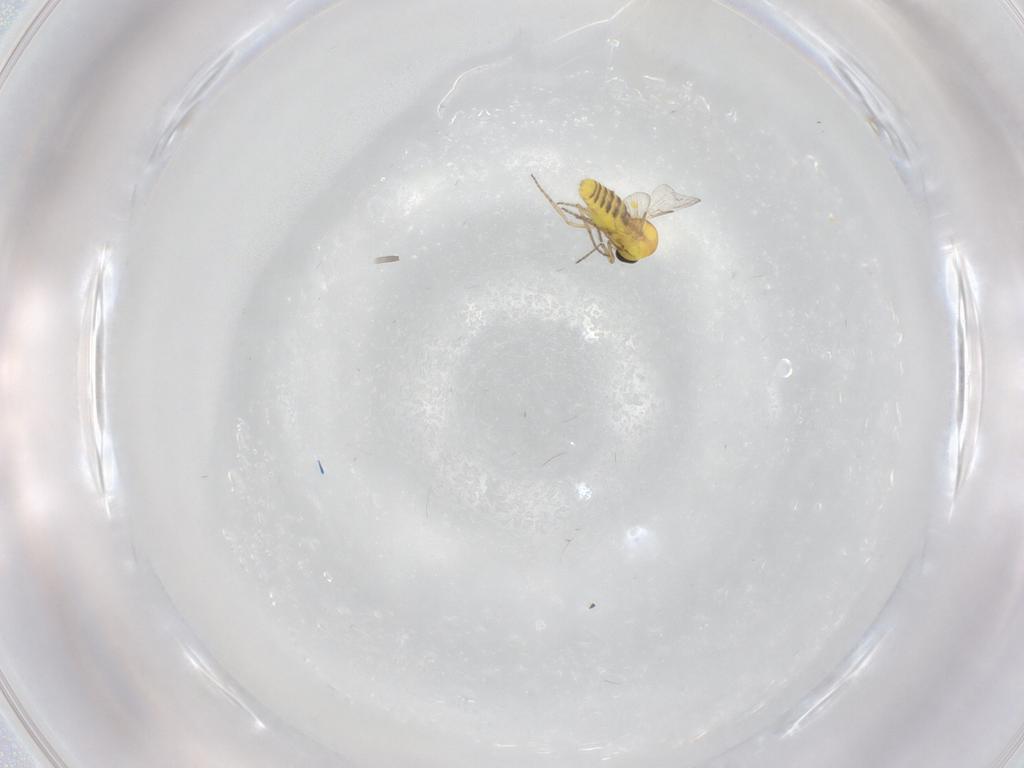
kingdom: Animalia
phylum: Arthropoda
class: Insecta
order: Diptera
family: Ceratopogonidae
